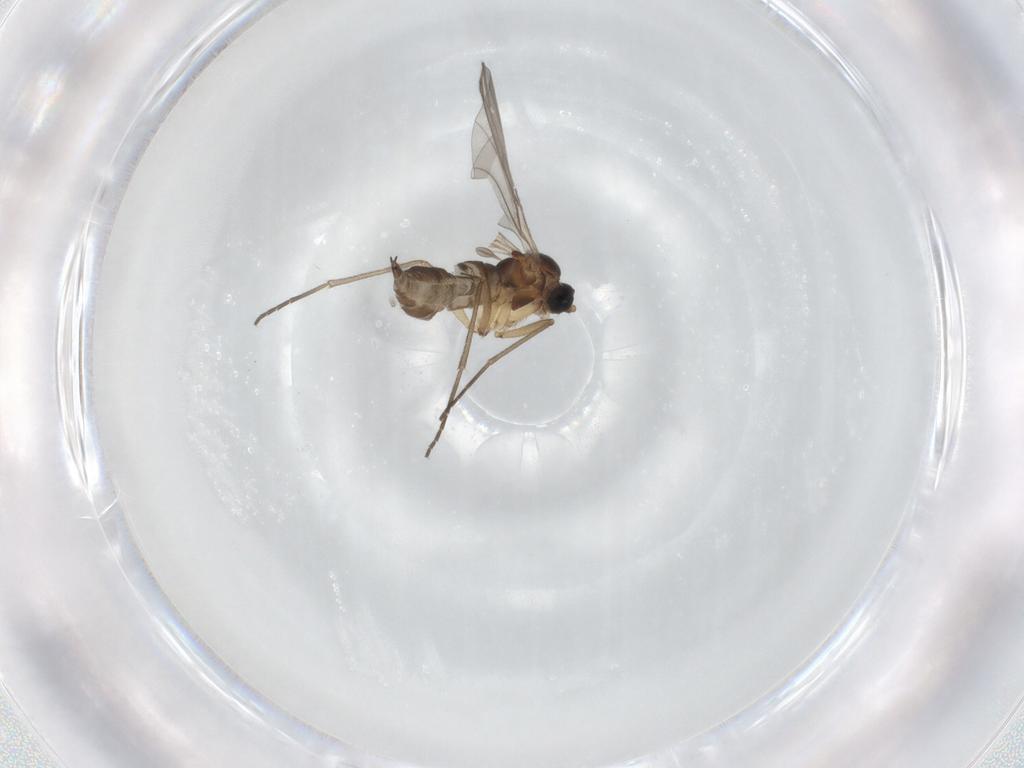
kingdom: Animalia
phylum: Arthropoda
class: Insecta
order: Diptera
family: Sciaridae
